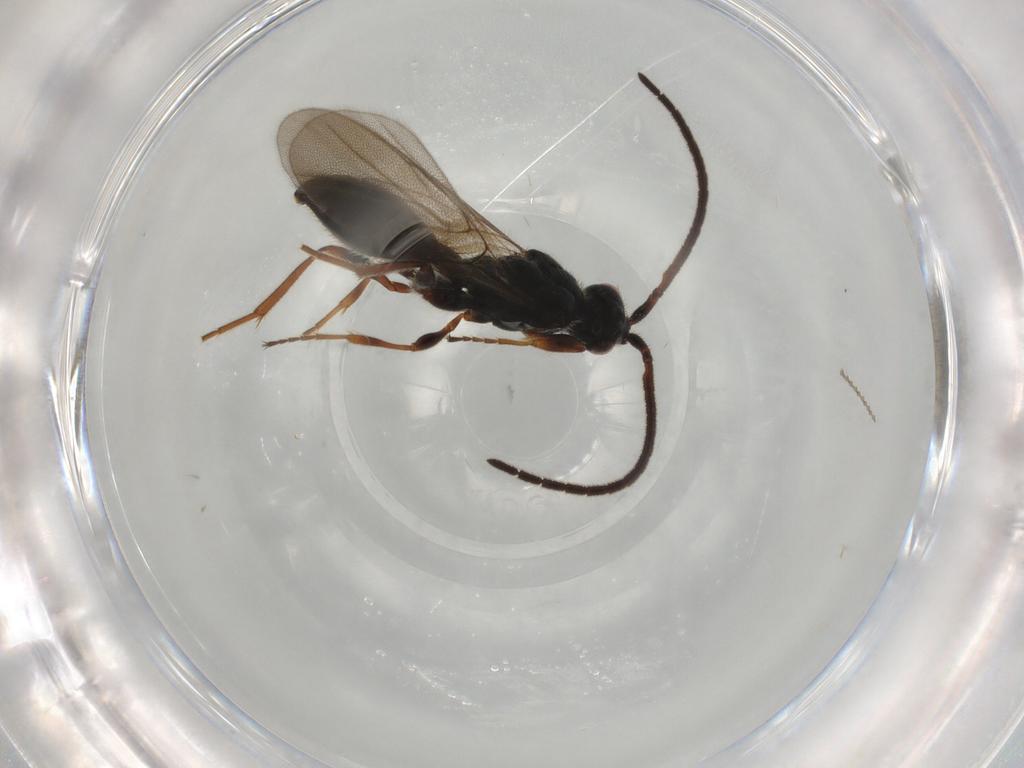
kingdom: Animalia
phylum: Arthropoda
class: Insecta
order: Hymenoptera
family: Ichneumonidae
